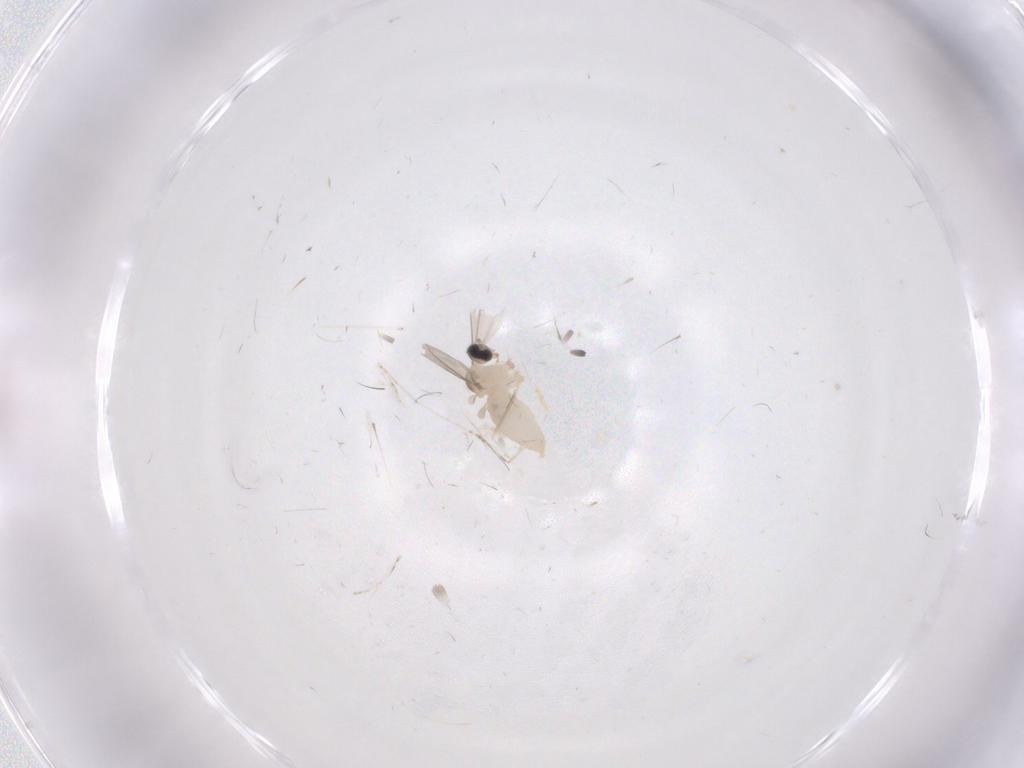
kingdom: Animalia
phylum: Arthropoda
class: Insecta
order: Diptera
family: Cecidomyiidae
